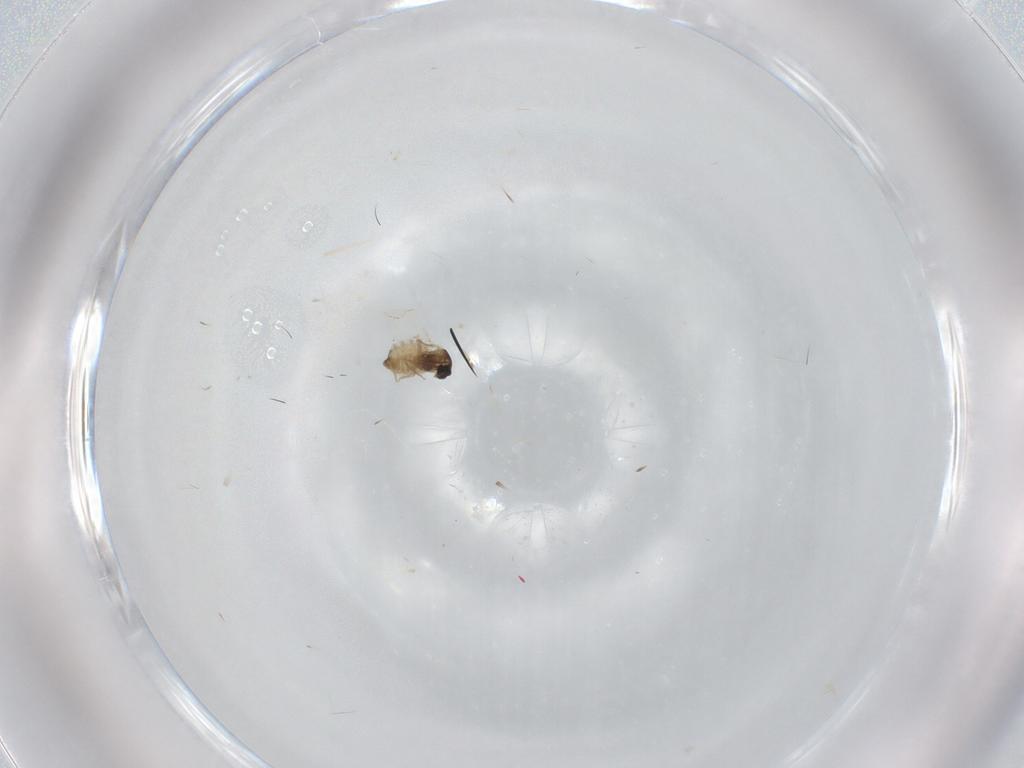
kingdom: Animalia
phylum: Arthropoda
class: Insecta
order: Diptera
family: Cecidomyiidae
